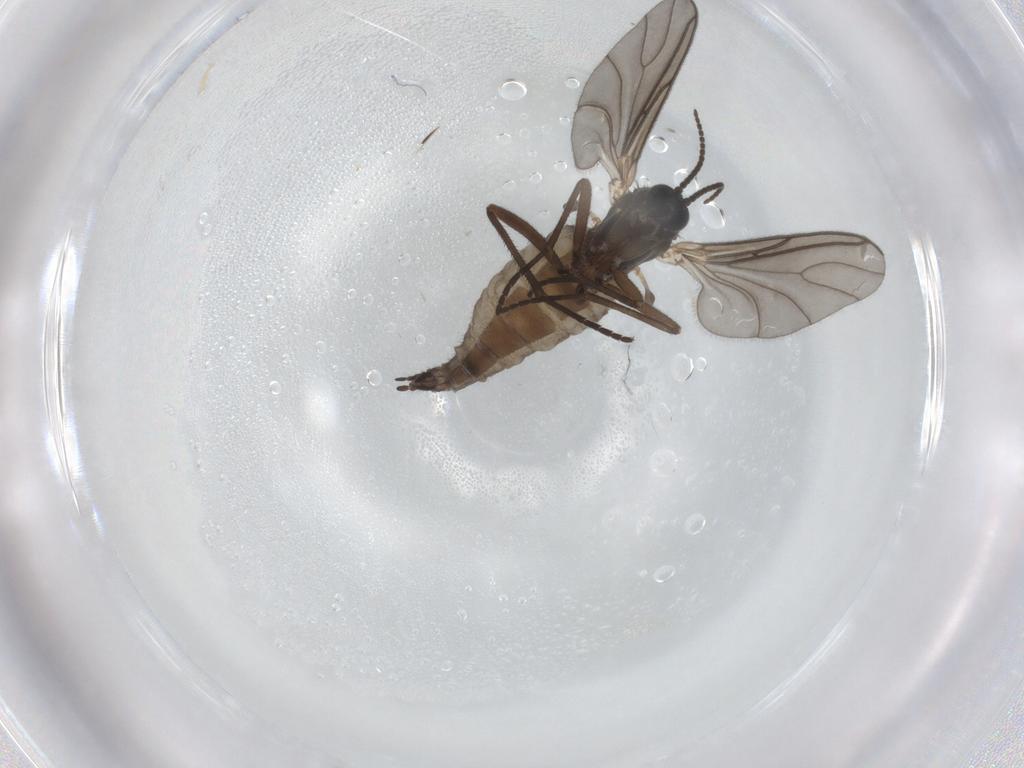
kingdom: Animalia
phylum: Arthropoda
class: Insecta
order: Diptera
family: Sciaridae
